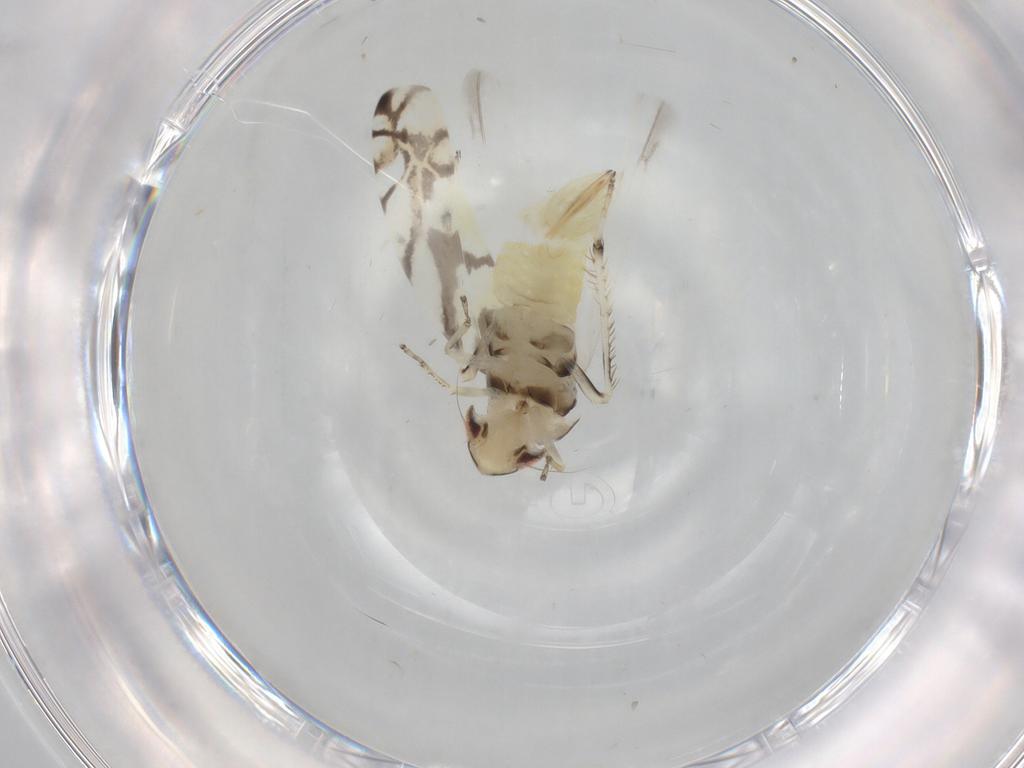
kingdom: Animalia
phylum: Arthropoda
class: Insecta
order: Hemiptera
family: Cicadellidae
